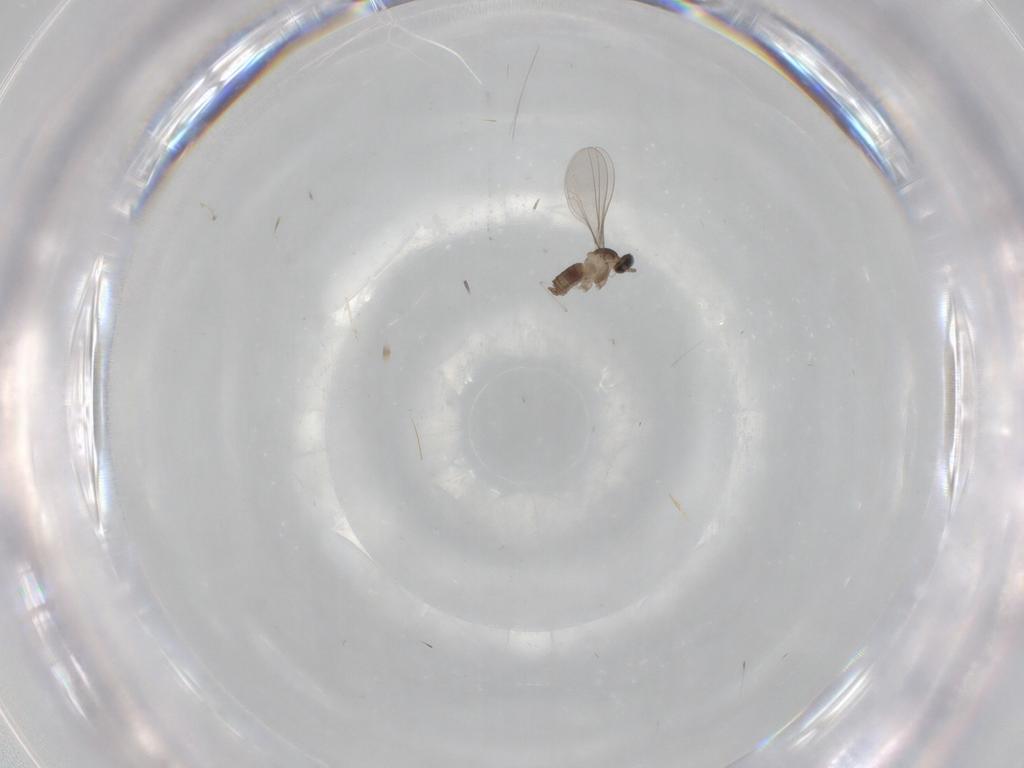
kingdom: Animalia
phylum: Arthropoda
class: Insecta
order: Diptera
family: Cecidomyiidae
